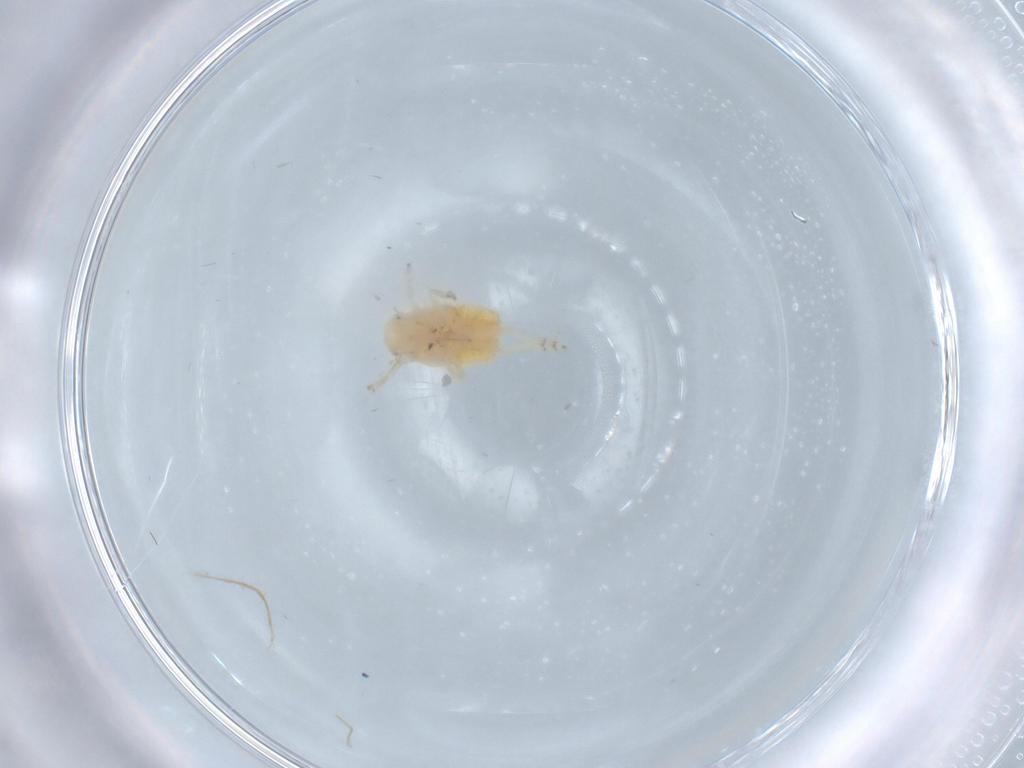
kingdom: Animalia
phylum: Arthropoda
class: Insecta
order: Hemiptera
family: Flatidae
